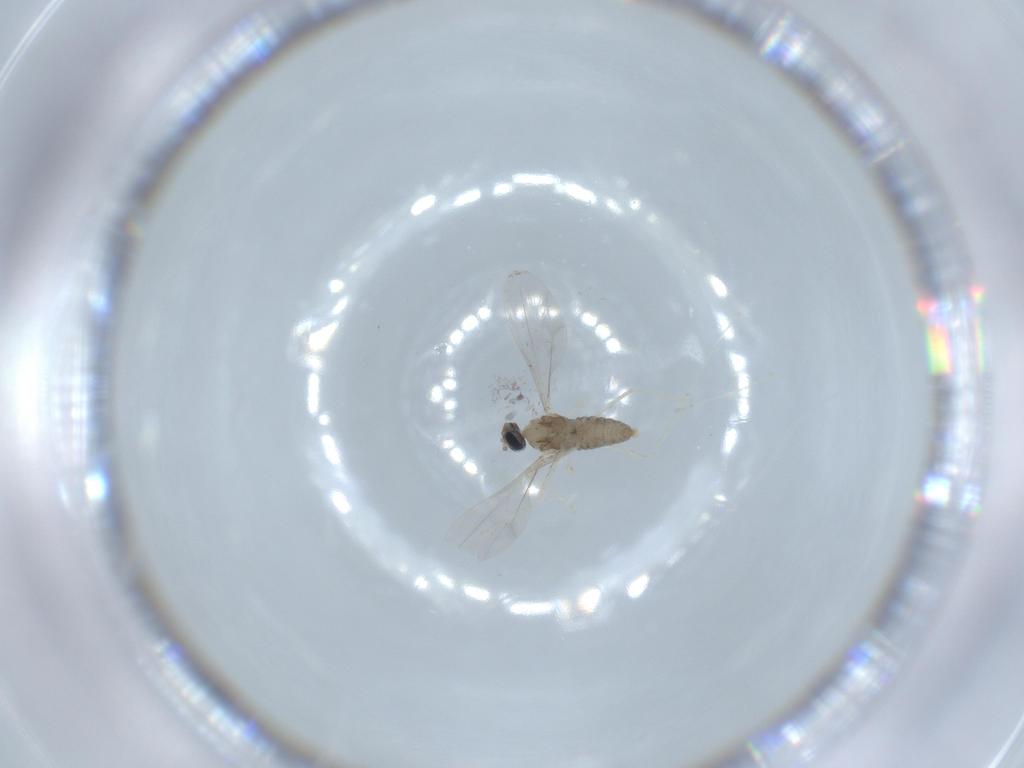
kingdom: Animalia
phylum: Arthropoda
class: Insecta
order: Diptera
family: Cecidomyiidae
